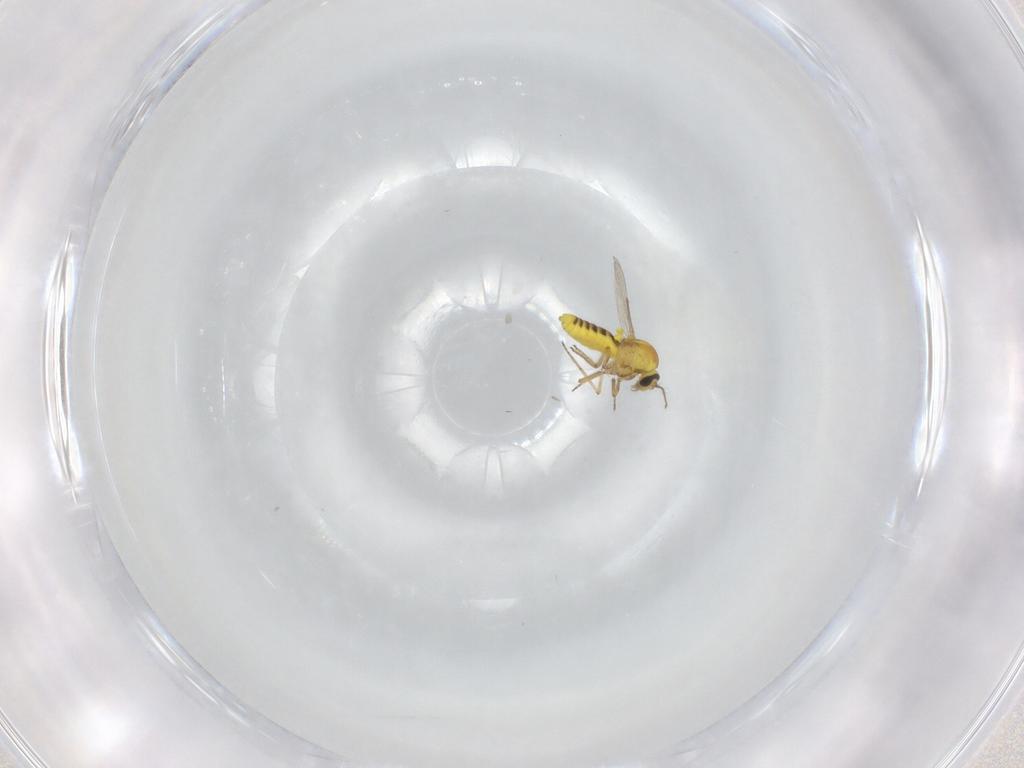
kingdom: Animalia
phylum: Arthropoda
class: Insecta
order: Diptera
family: Ceratopogonidae
